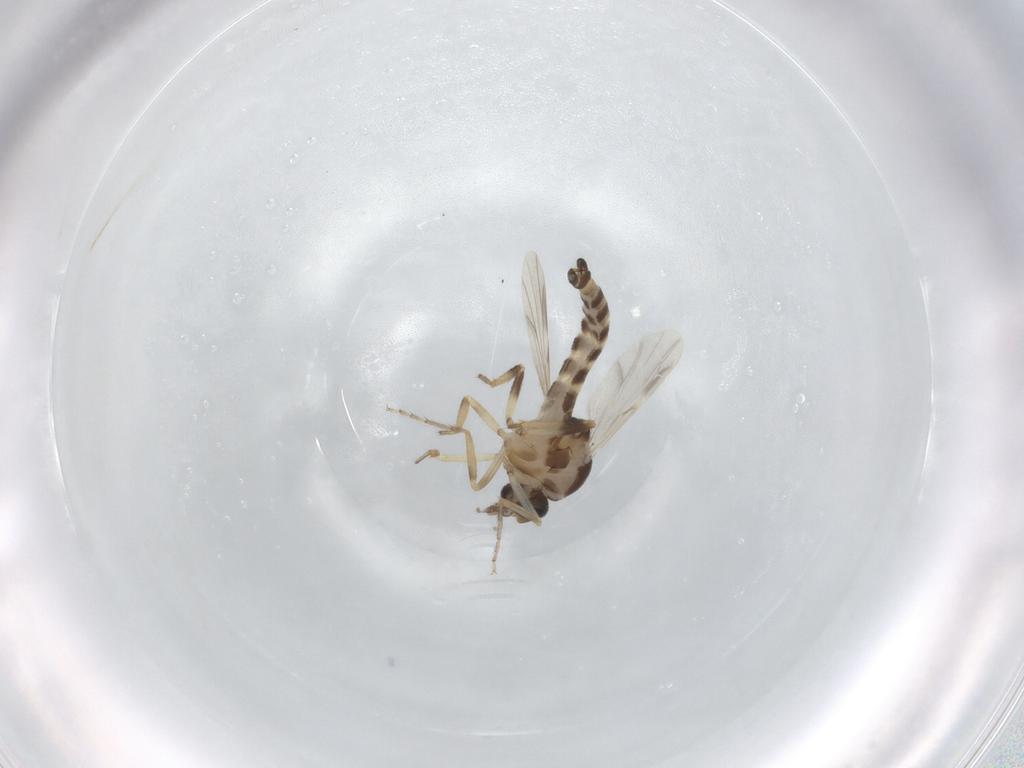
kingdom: Animalia
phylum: Arthropoda
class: Insecta
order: Diptera
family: Ceratopogonidae
